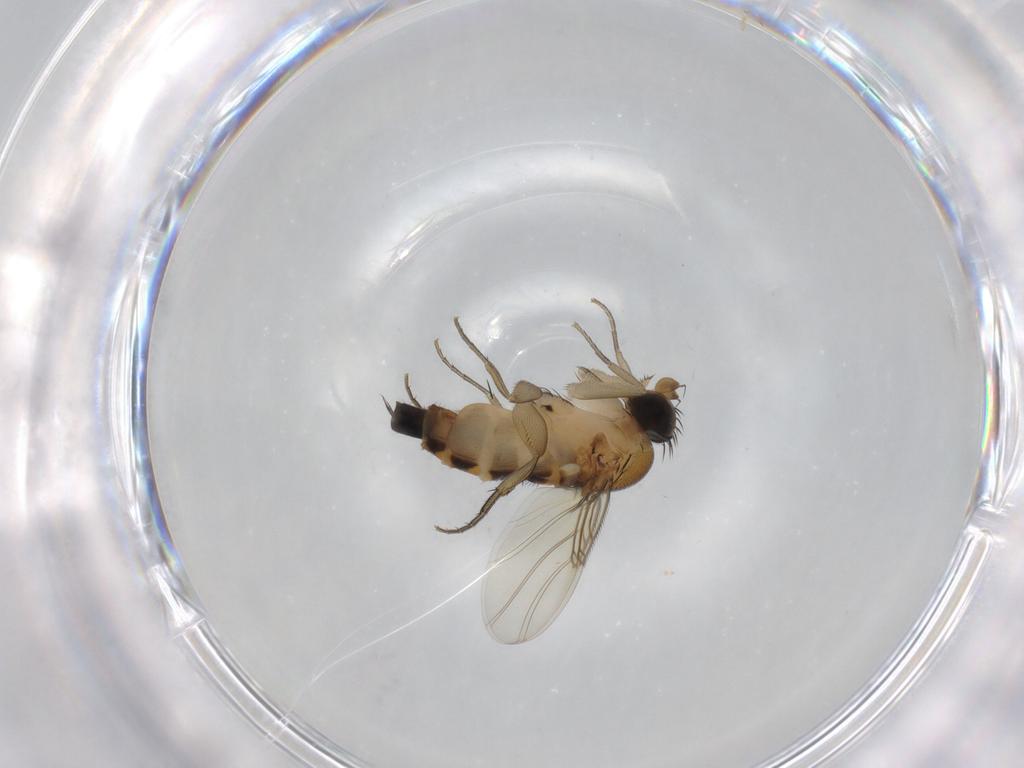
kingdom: Animalia
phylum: Arthropoda
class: Insecta
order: Diptera
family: Phoridae
